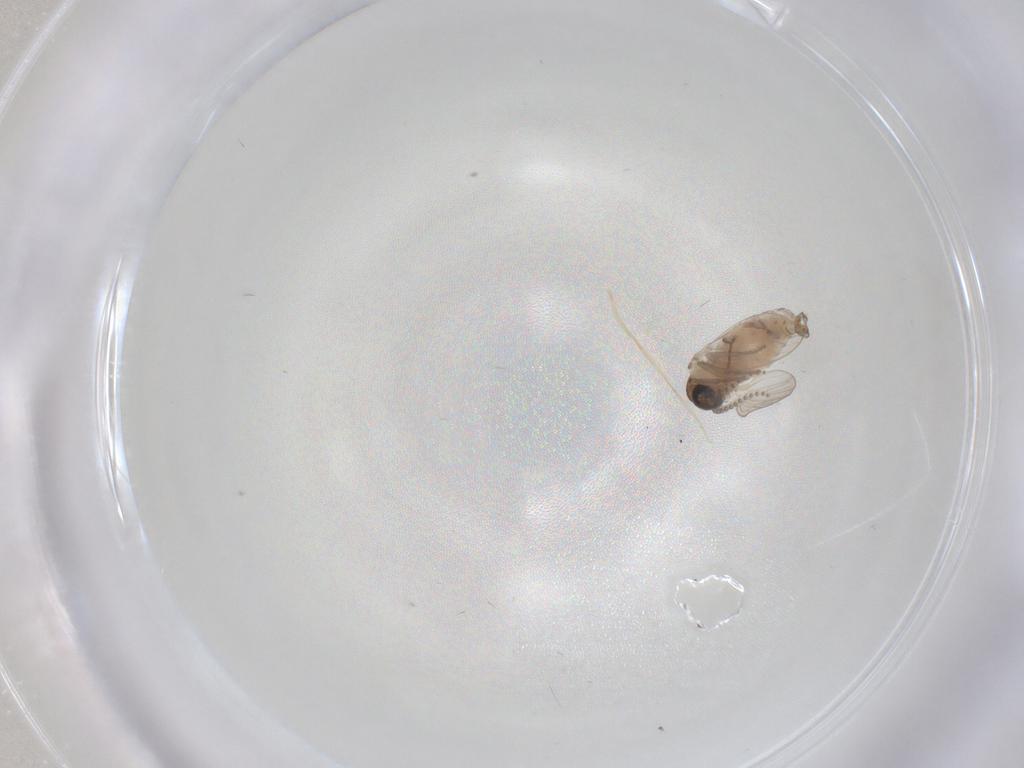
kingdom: Animalia
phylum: Arthropoda
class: Insecta
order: Diptera
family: Psychodidae
